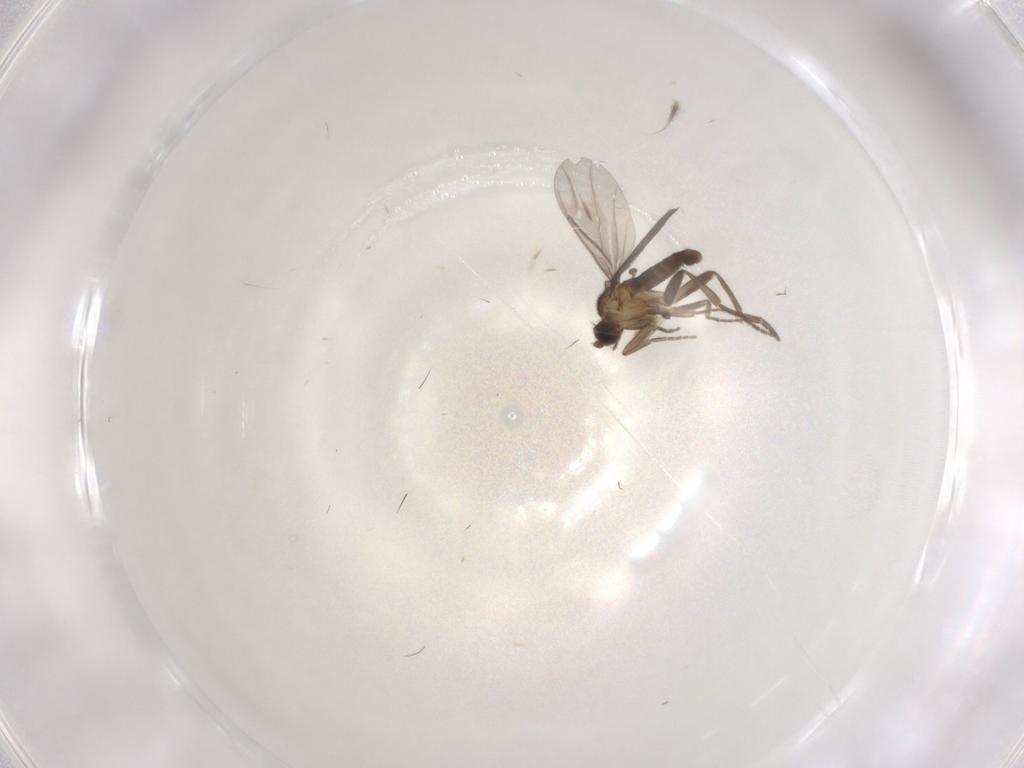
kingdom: Animalia
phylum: Arthropoda
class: Insecta
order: Diptera
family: Phoridae
